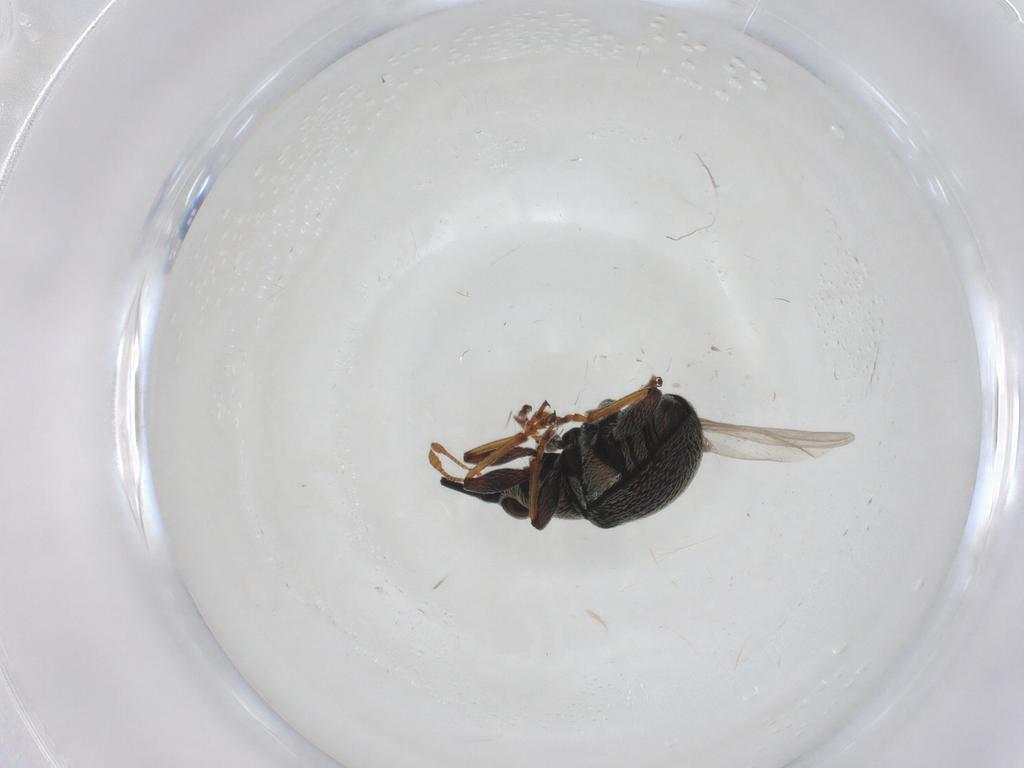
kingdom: Animalia
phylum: Arthropoda
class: Insecta
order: Coleoptera
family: Brentidae
